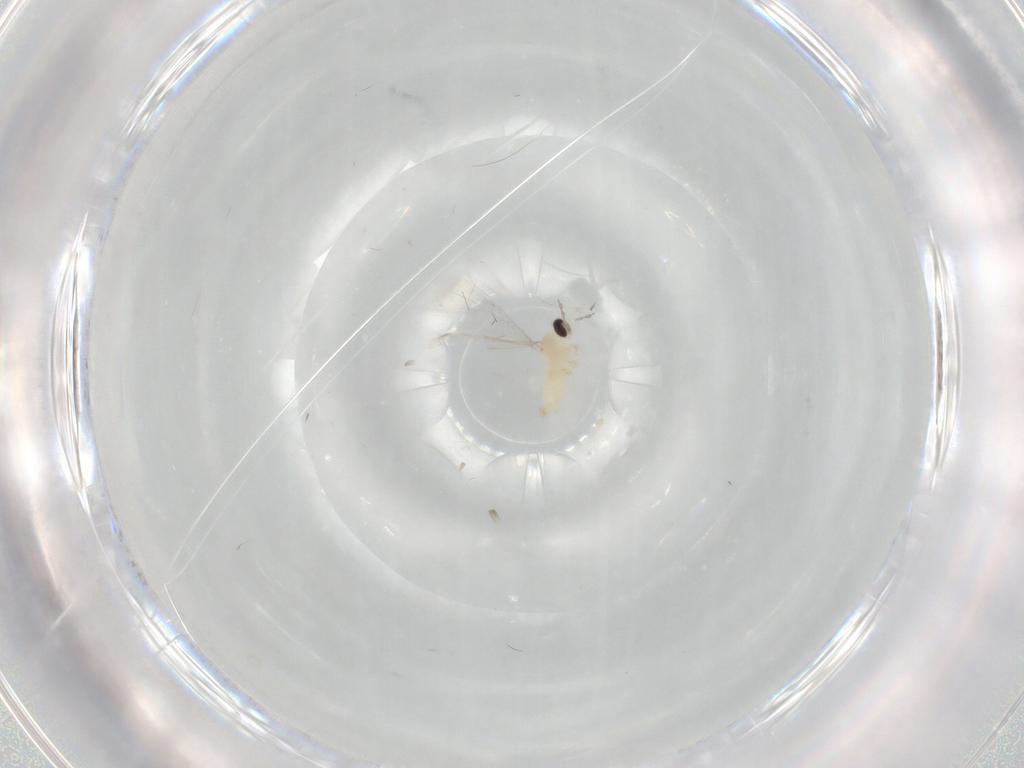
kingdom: Animalia
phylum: Arthropoda
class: Insecta
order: Diptera
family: Cecidomyiidae
